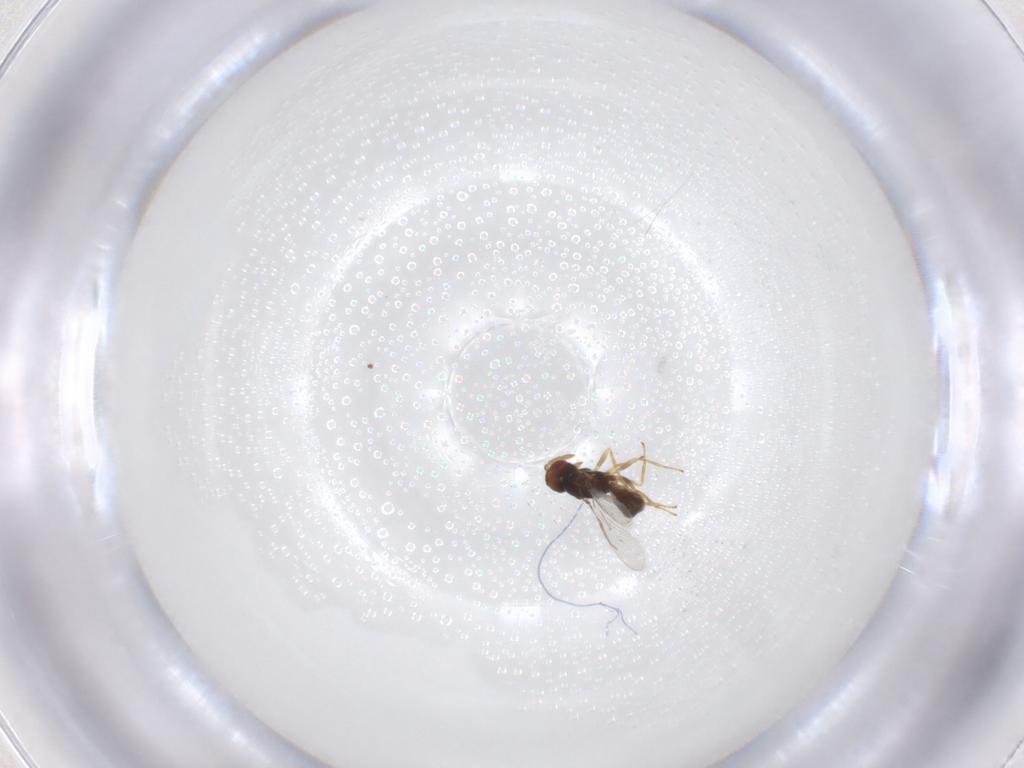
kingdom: Animalia
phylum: Arthropoda
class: Insecta
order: Hymenoptera
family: Eulophidae
